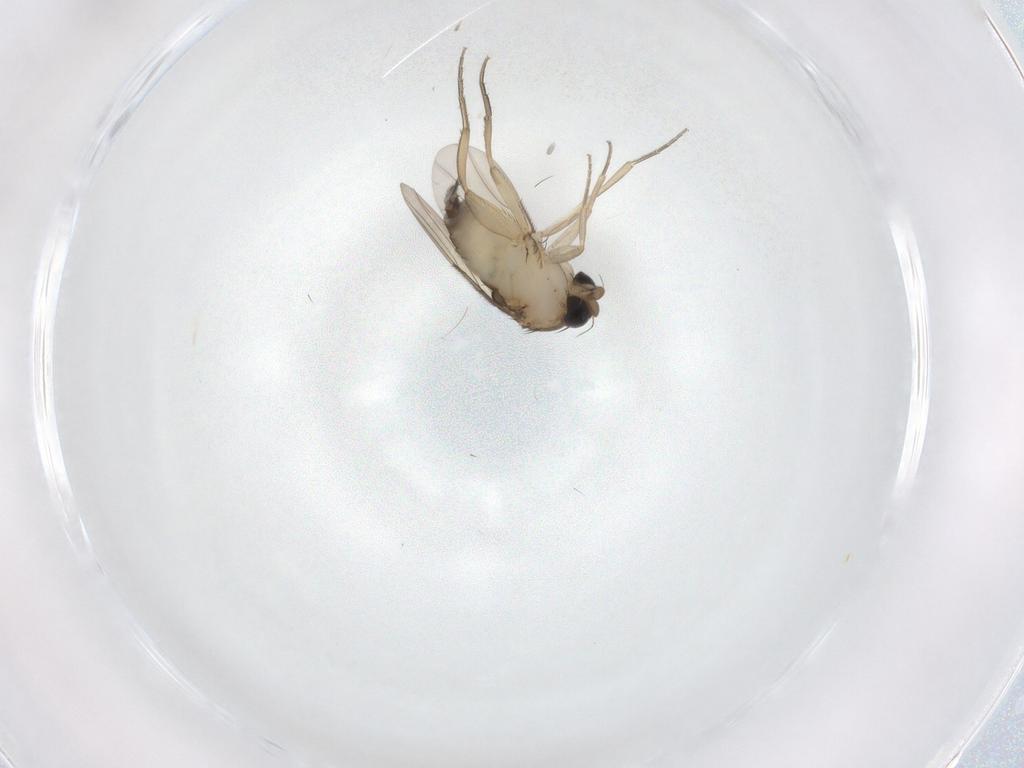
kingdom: Animalia
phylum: Arthropoda
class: Insecta
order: Diptera
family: Phoridae
